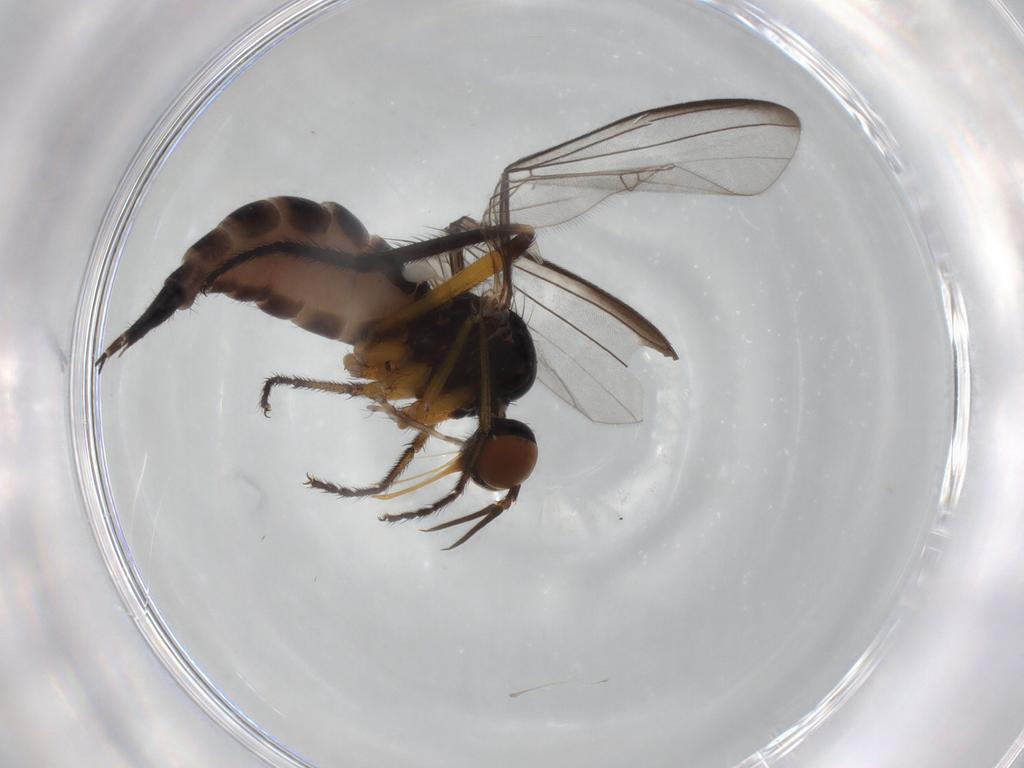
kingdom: Animalia
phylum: Arthropoda
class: Insecta
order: Diptera
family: Empididae
